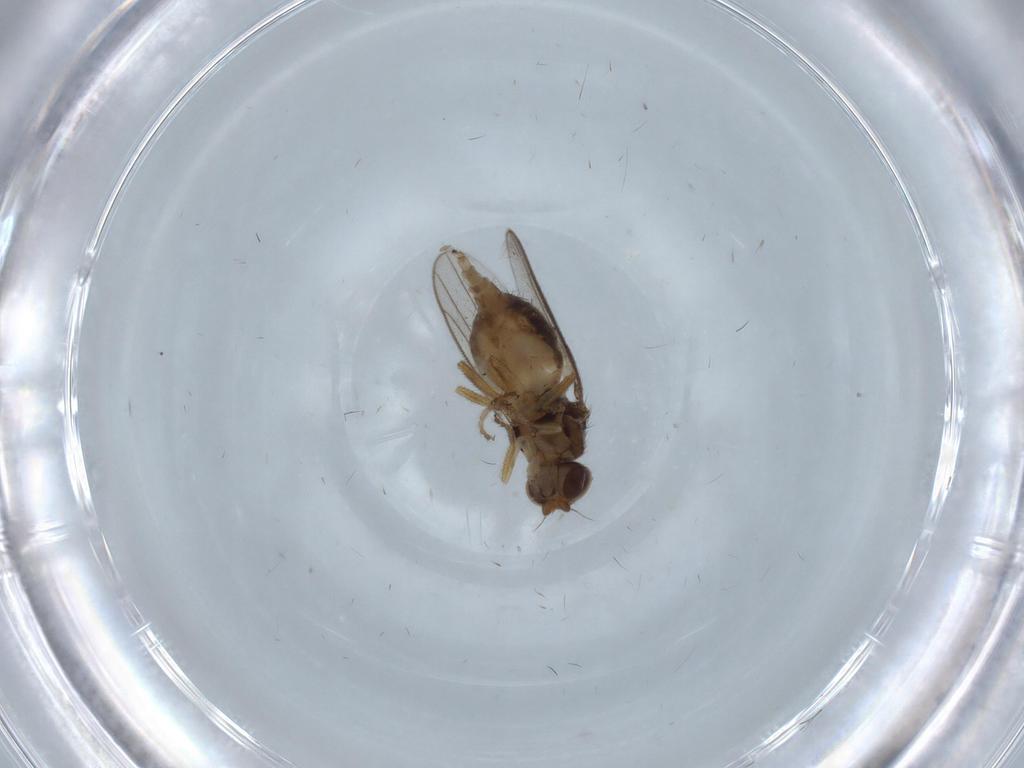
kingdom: Animalia
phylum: Arthropoda
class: Insecta
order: Diptera
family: Chloropidae
